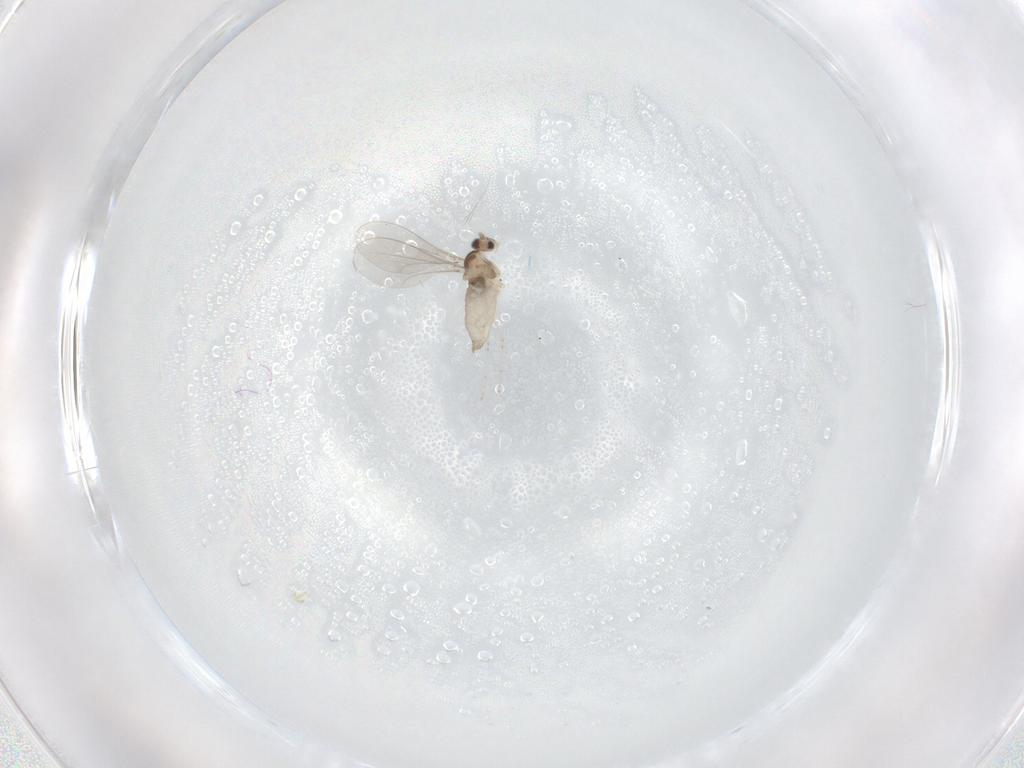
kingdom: Animalia
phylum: Arthropoda
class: Insecta
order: Diptera
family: Cecidomyiidae
